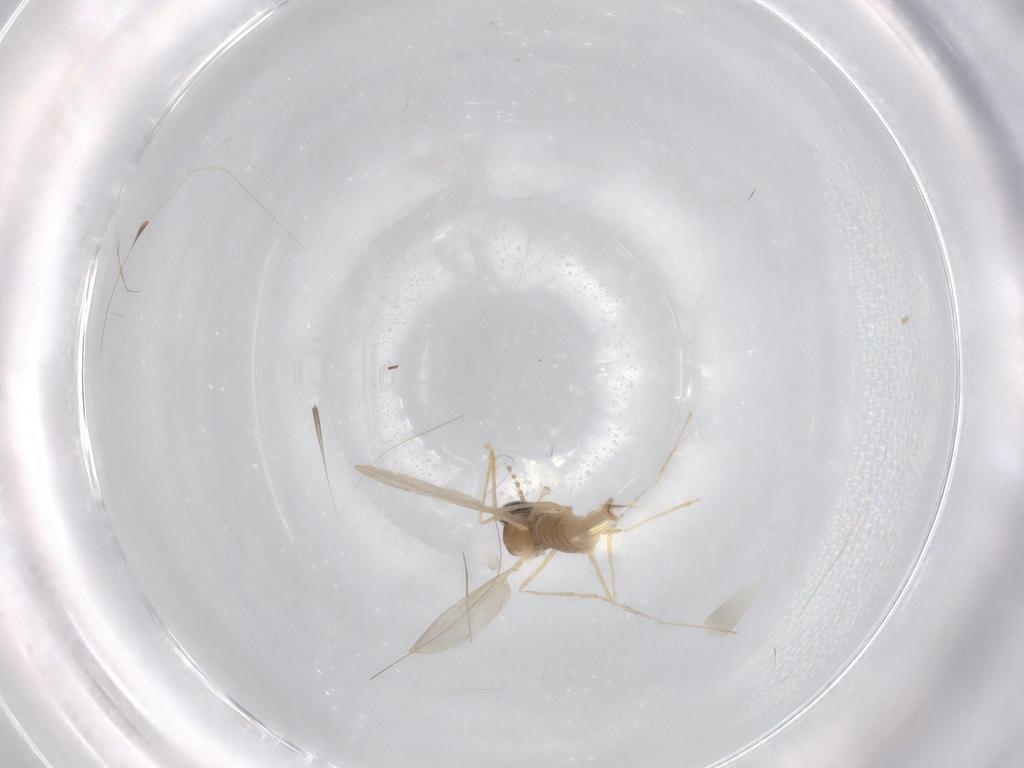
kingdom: Animalia
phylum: Arthropoda
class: Insecta
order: Diptera
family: Cecidomyiidae
